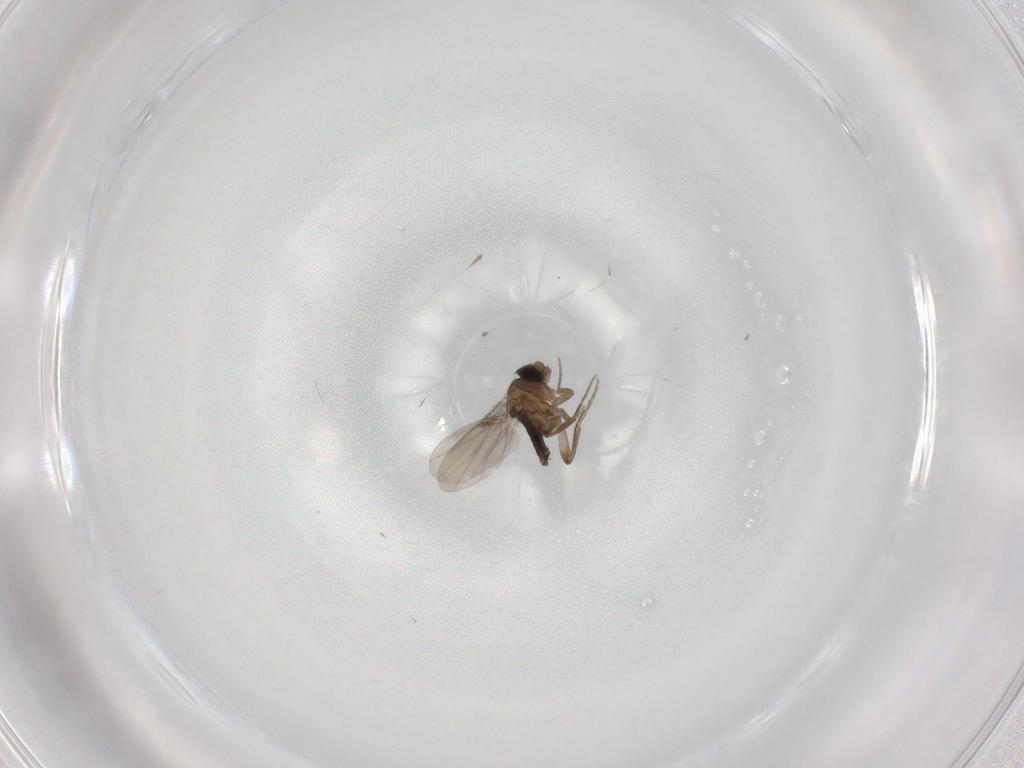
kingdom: Animalia
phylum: Arthropoda
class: Insecta
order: Diptera
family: Phoridae
